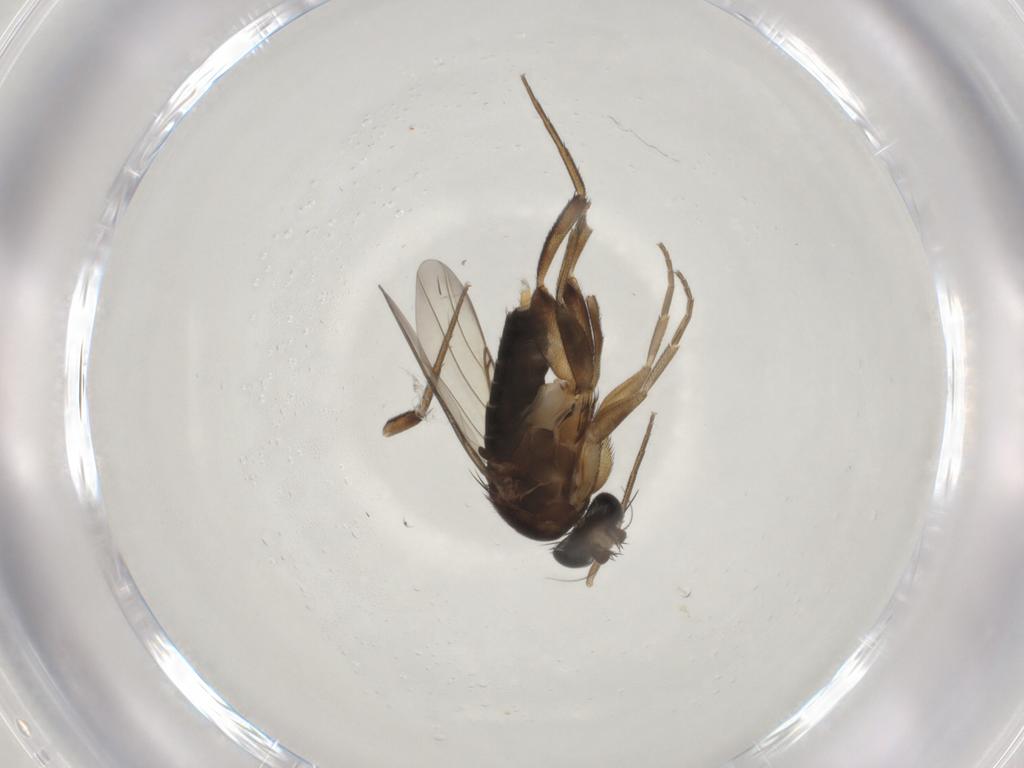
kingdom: Animalia
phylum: Arthropoda
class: Insecta
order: Diptera
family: Phoridae
